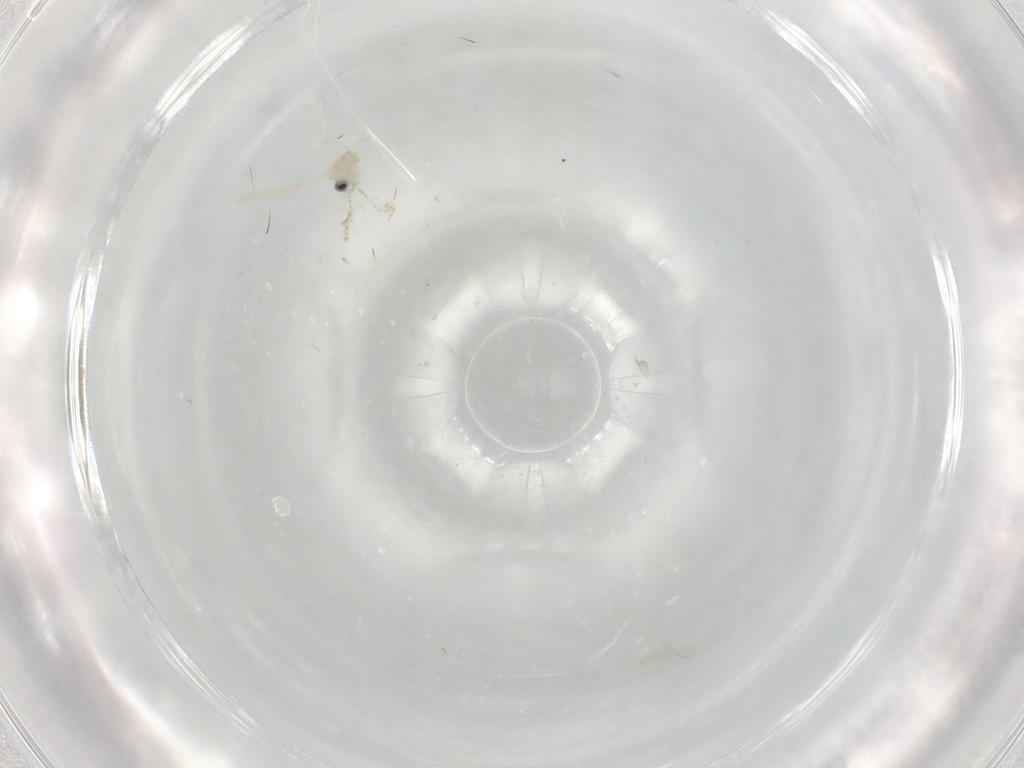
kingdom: Animalia
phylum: Arthropoda
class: Insecta
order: Diptera
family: Cecidomyiidae
